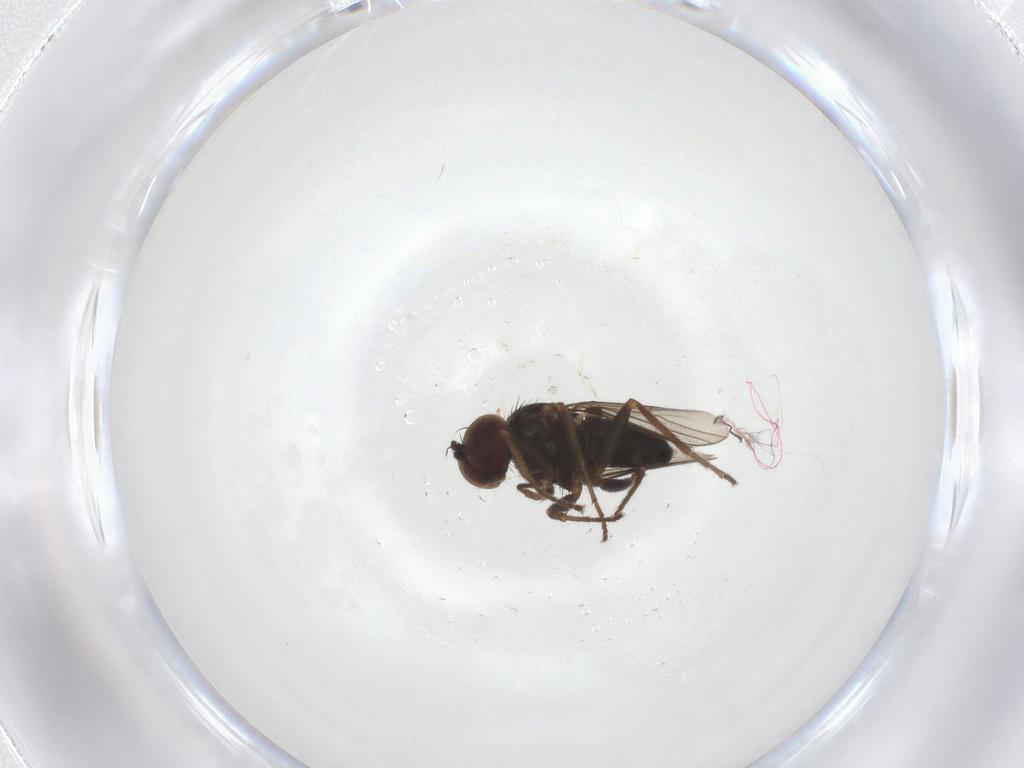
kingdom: Animalia
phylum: Arthropoda
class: Insecta
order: Diptera
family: Dolichopodidae
